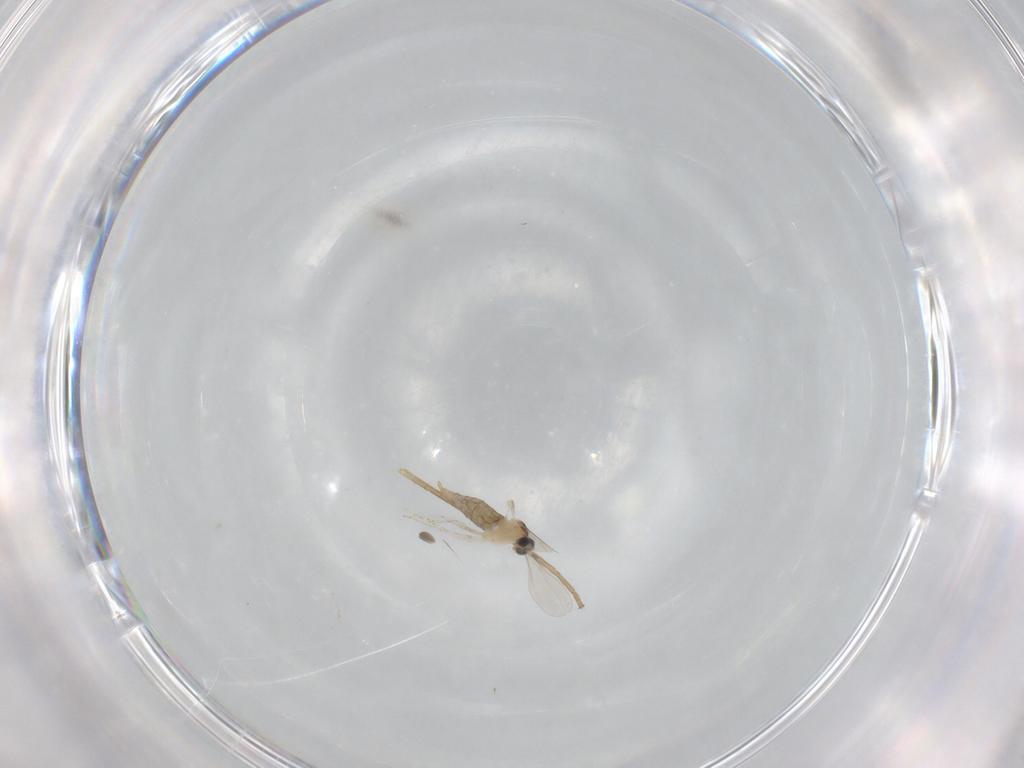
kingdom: Animalia
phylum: Arthropoda
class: Insecta
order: Diptera
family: Mycetophilidae
